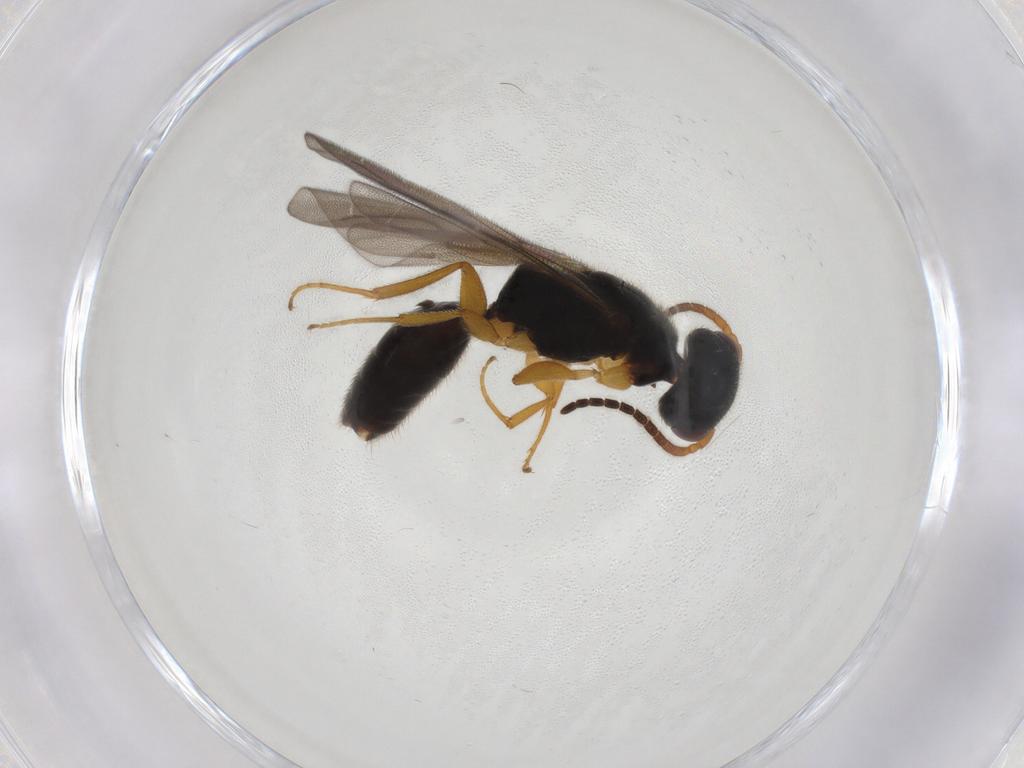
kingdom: Animalia
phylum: Arthropoda
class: Insecta
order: Hymenoptera
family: Bethylidae
